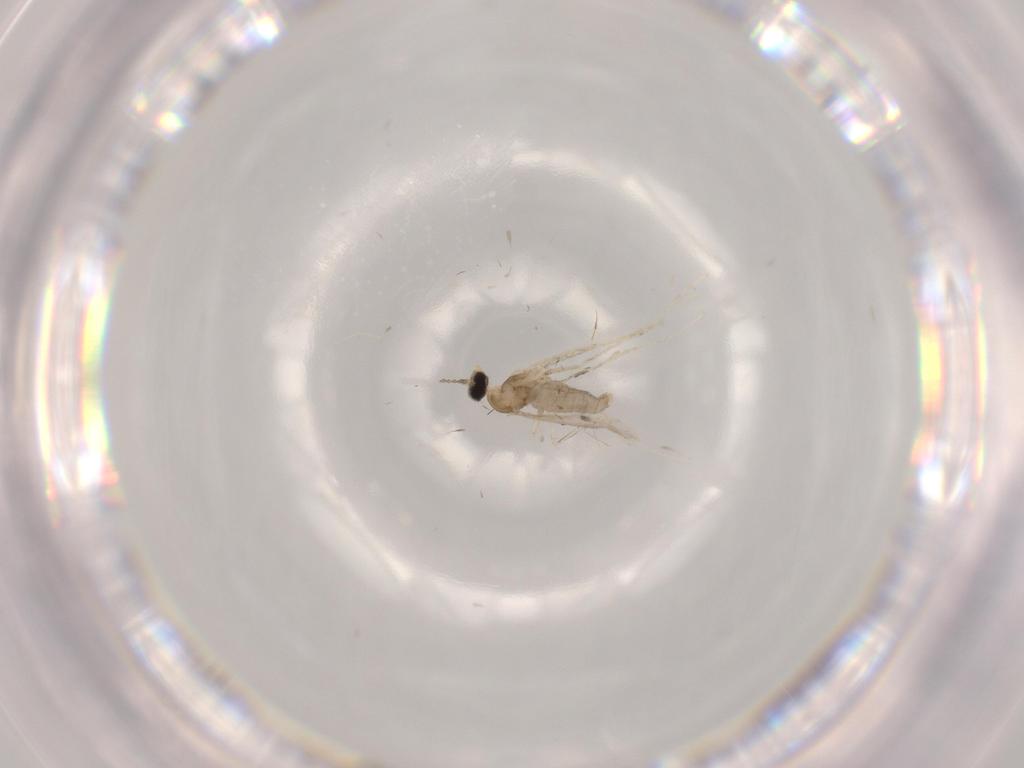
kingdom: Animalia
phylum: Arthropoda
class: Insecta
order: Diptera
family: Cecidomyiidae
